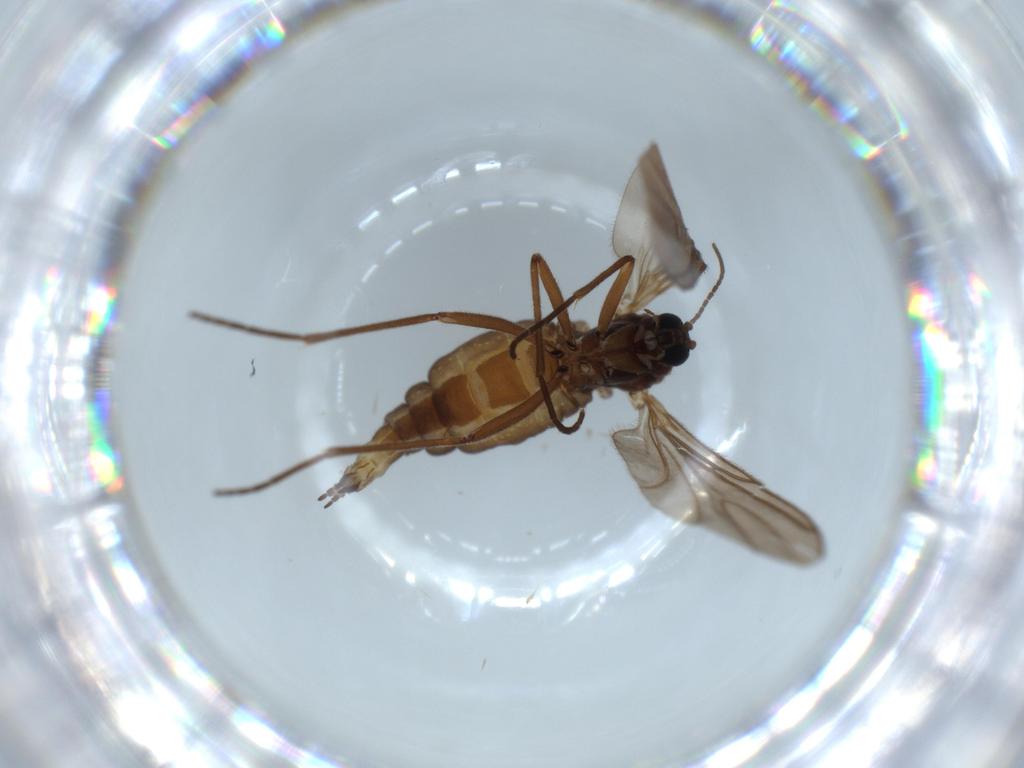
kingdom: Animalia
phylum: Arthropoda
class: Insecta
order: Diptera
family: Sciaridae
